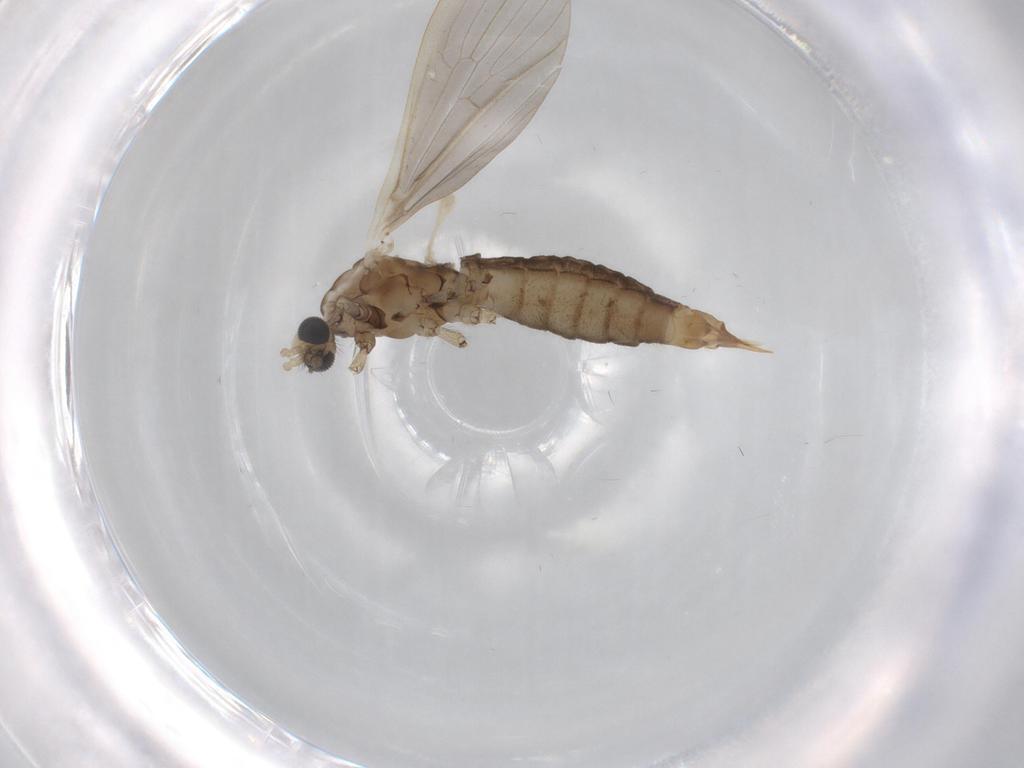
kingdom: Animalia
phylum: Arthropoda
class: Insecta
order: Diptera
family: Limoniidae
